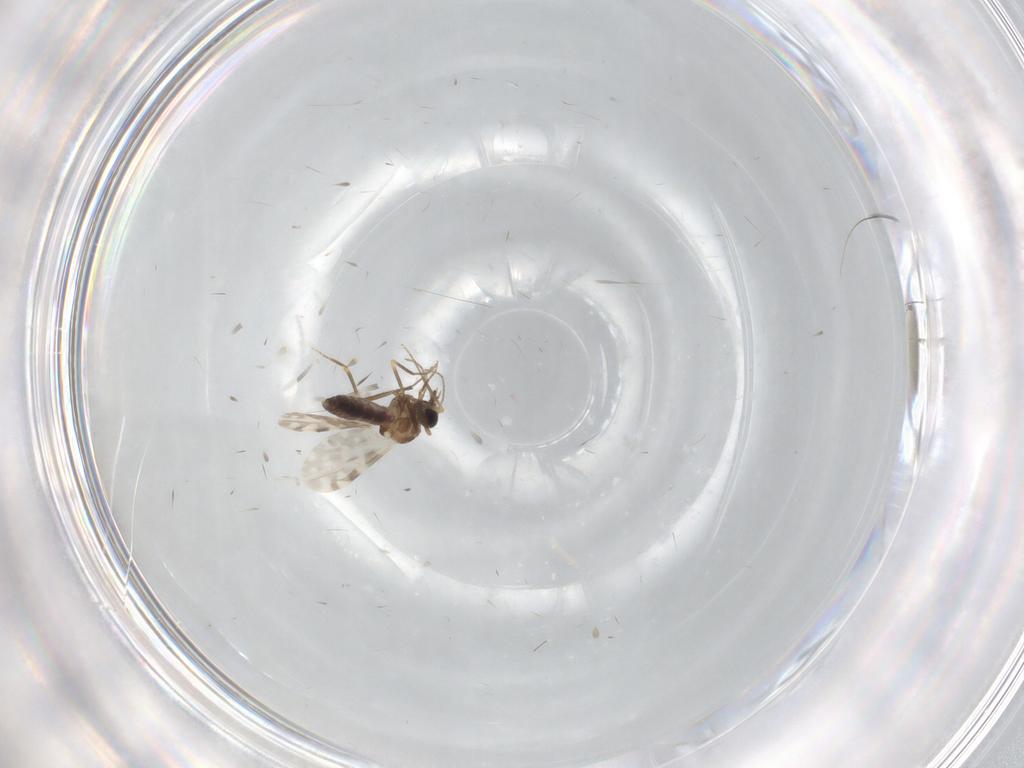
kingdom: Animalia
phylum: Arthropoda
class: Insecta
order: Diptera
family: Ceratopogonidae
